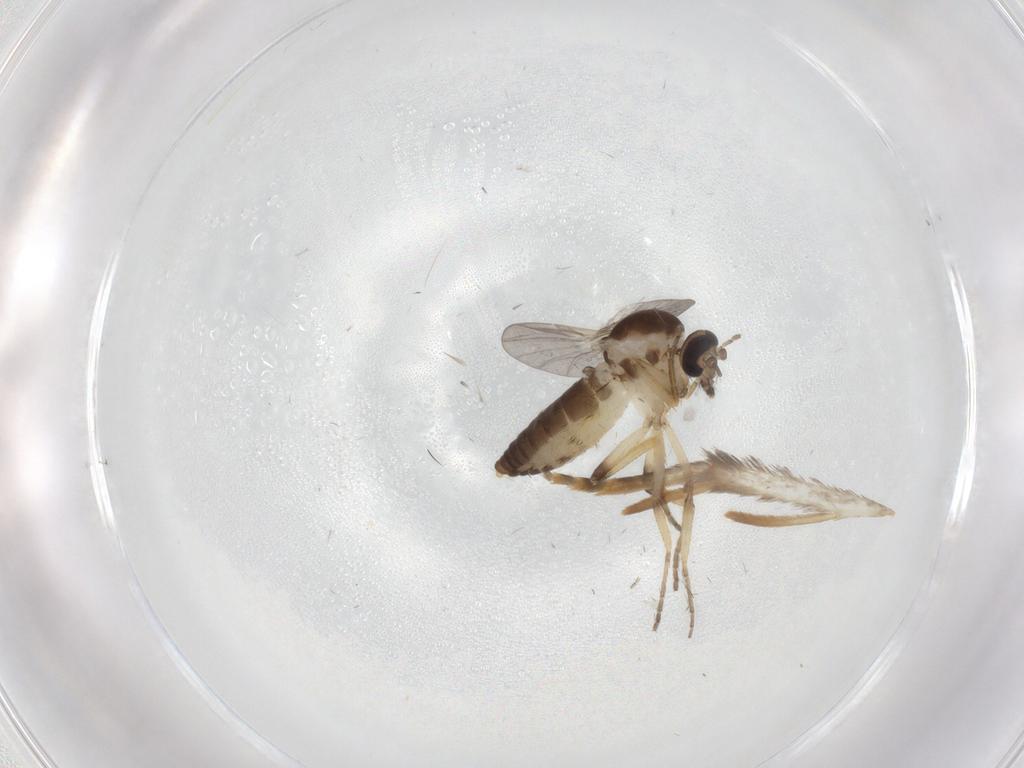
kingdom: Animalia
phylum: Arthropoda
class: Insecta
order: Diptera
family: Ceratopogonidae
